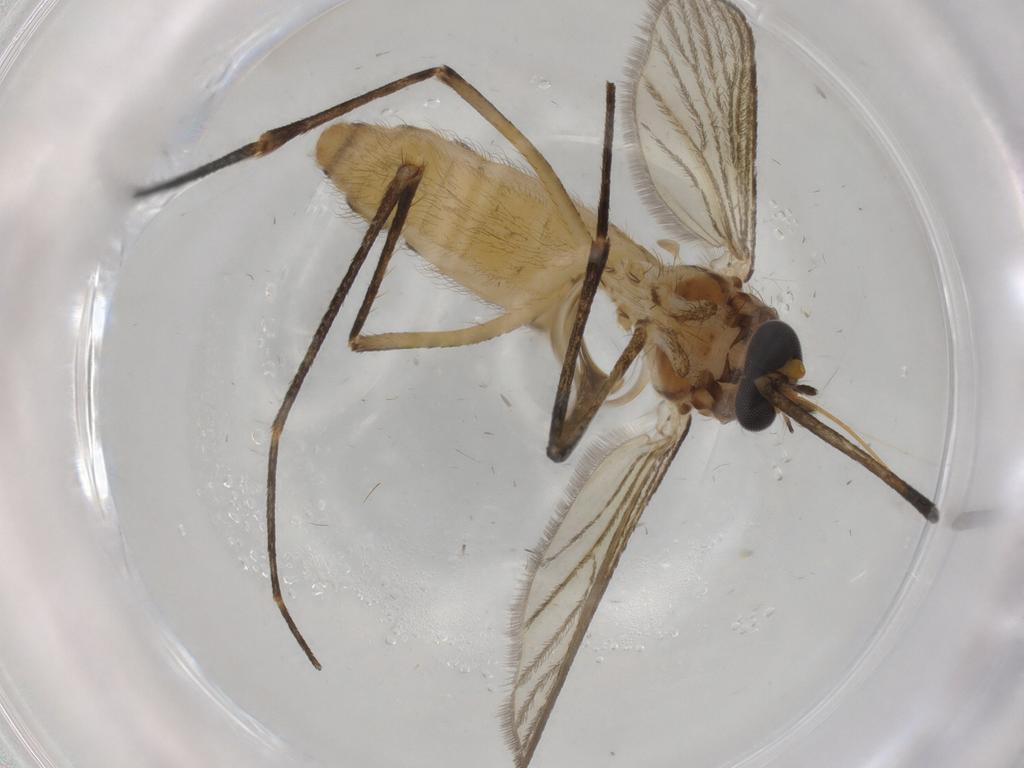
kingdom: Animalia
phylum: Arthropoda
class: Insecta
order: Diptera
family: Culicidae
